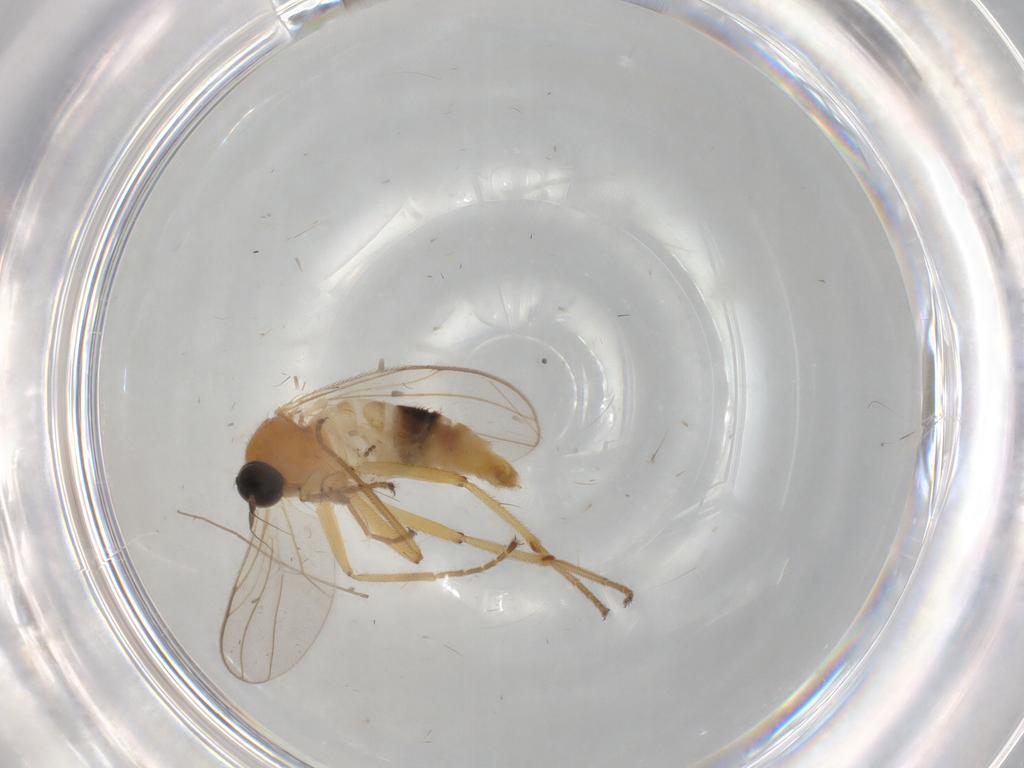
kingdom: Animalia
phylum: Arthropoda
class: Insecta
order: Diptera
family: Hybotidae
